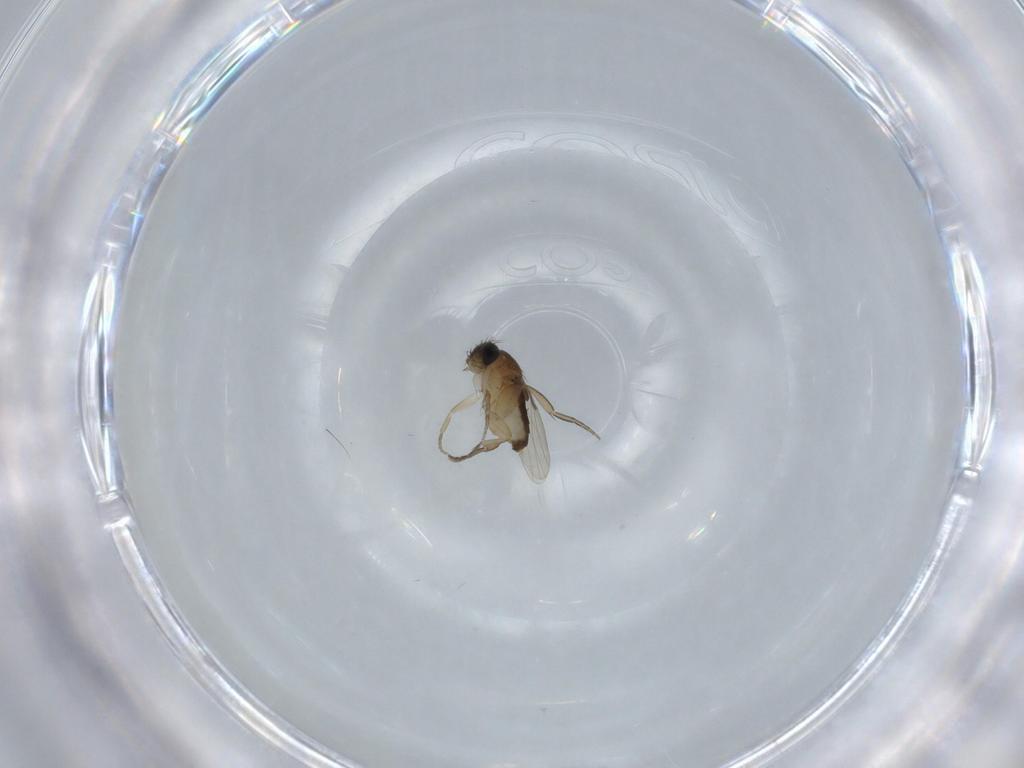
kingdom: Animalia
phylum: Arthropoda
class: Insecta
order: Diptera
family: Phoridae
